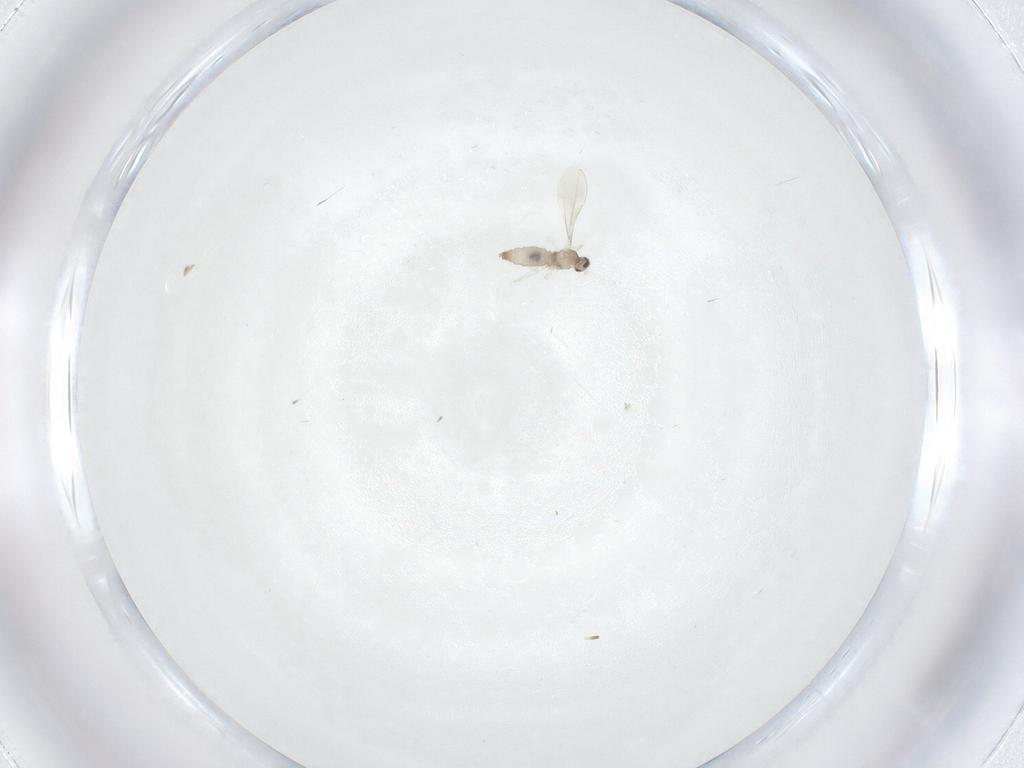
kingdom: Animalia
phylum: Arthropoda
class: Insecta
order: Diptera
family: Cecidomyiidae
